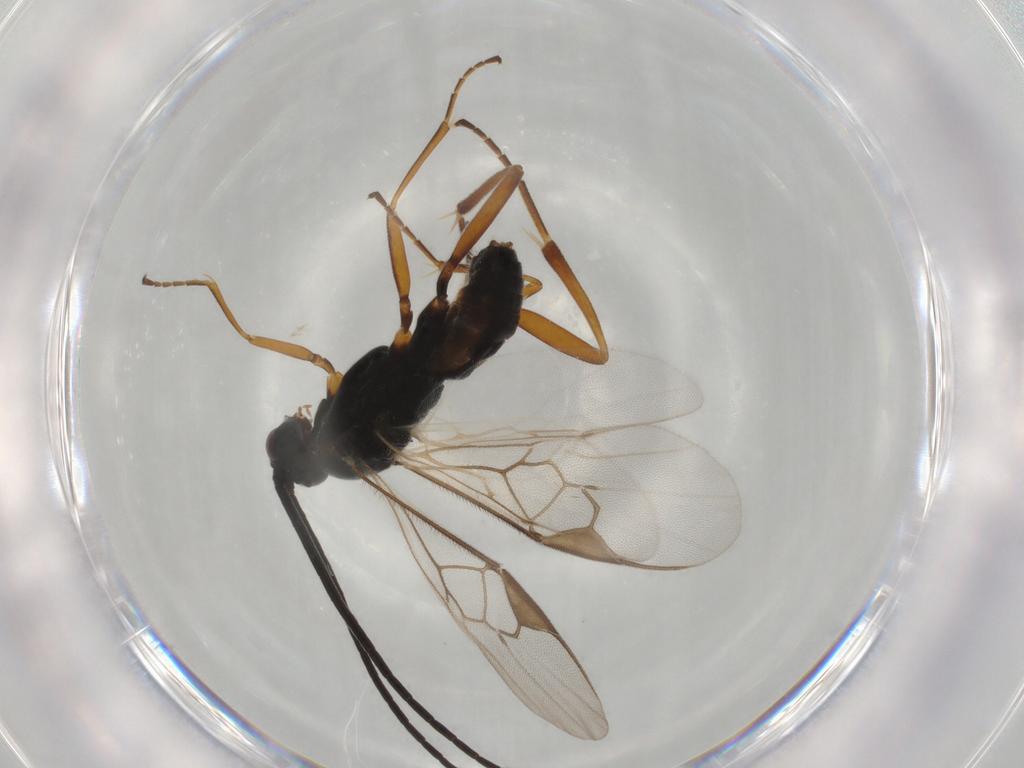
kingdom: Animalia
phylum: Arthropoda
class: Insecta
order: Hymenoptera
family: Braconidae
